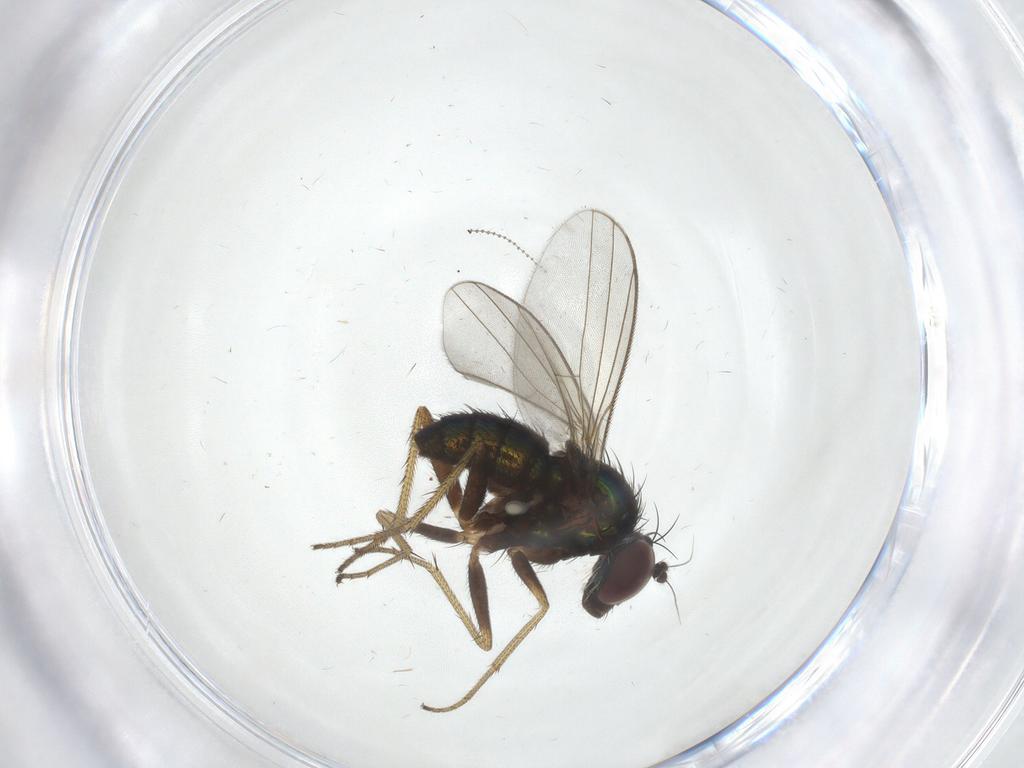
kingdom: Animalia
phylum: Arthropoda
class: Insecta
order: Diptera
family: Dolichopodidae
